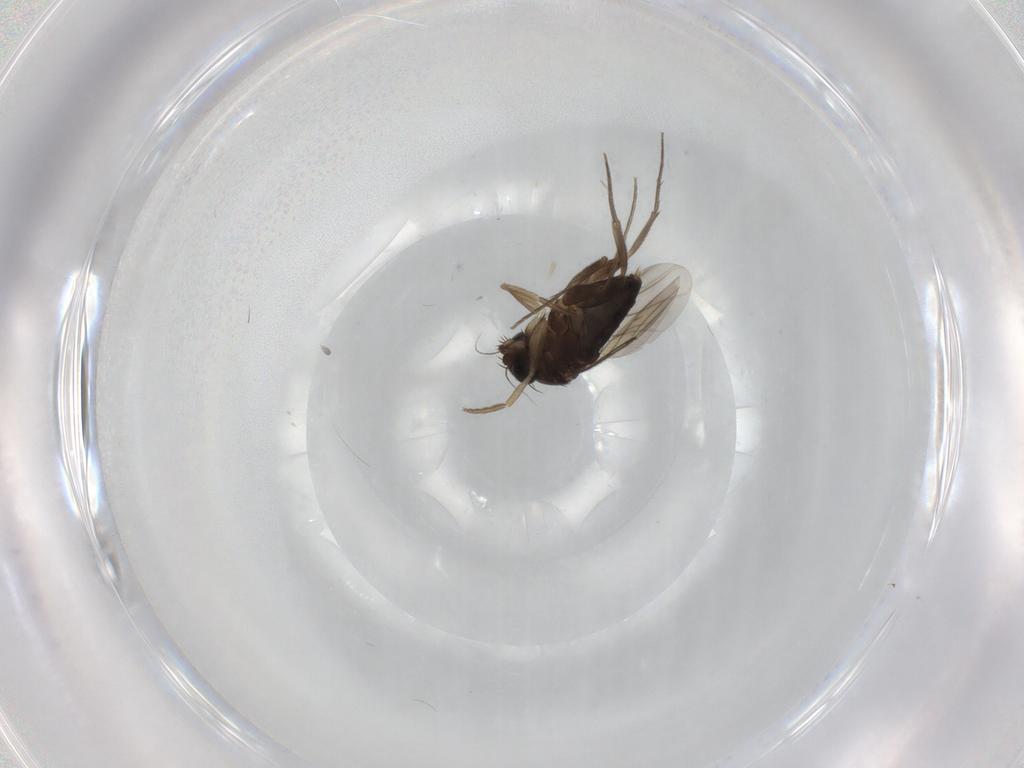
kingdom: Animalia
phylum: Arthropoda
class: Insecta
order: Diptera
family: Phoridae
